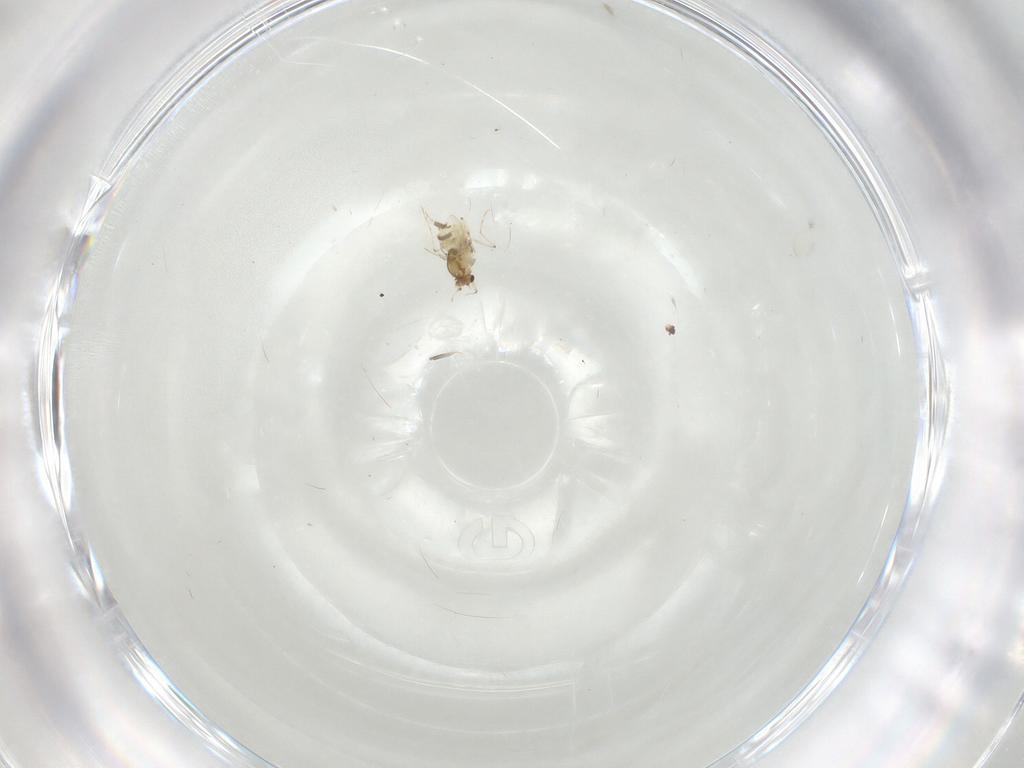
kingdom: Animalia
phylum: Arthropoda
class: Insecta
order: Diptera
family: Chironomidae
